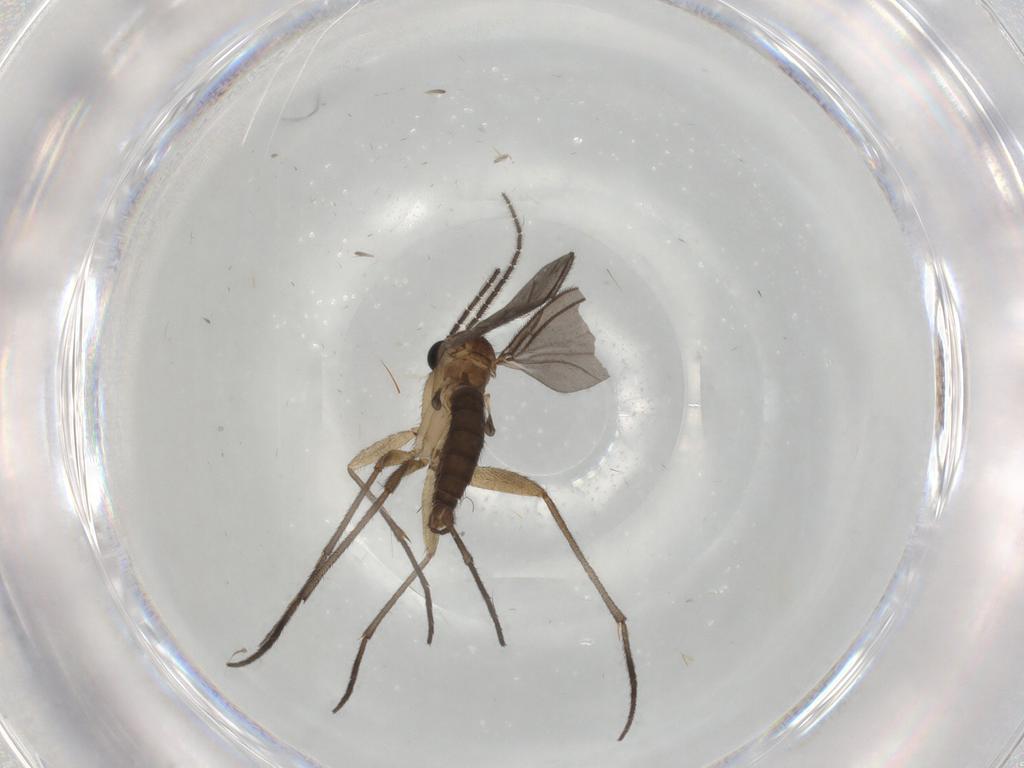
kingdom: Animalia
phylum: Arthropoda
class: Insecta
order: Diptera
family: Sciaridae
